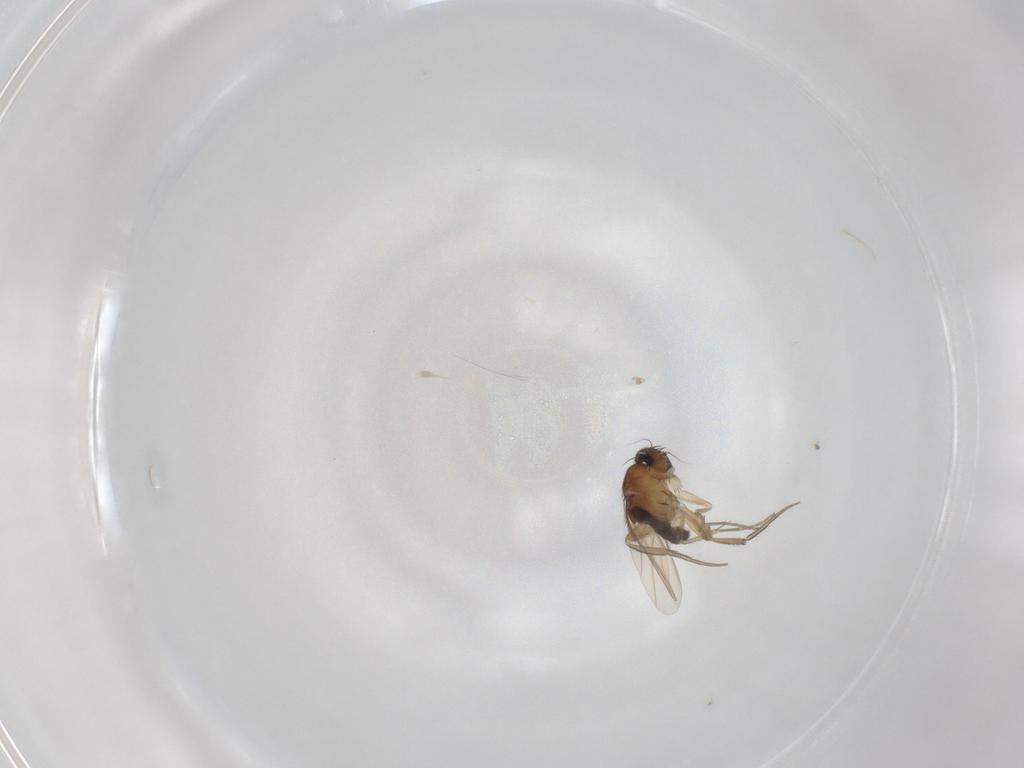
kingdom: Animalia
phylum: Arthropoda
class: Insecta
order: Diptera
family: Phoridae
